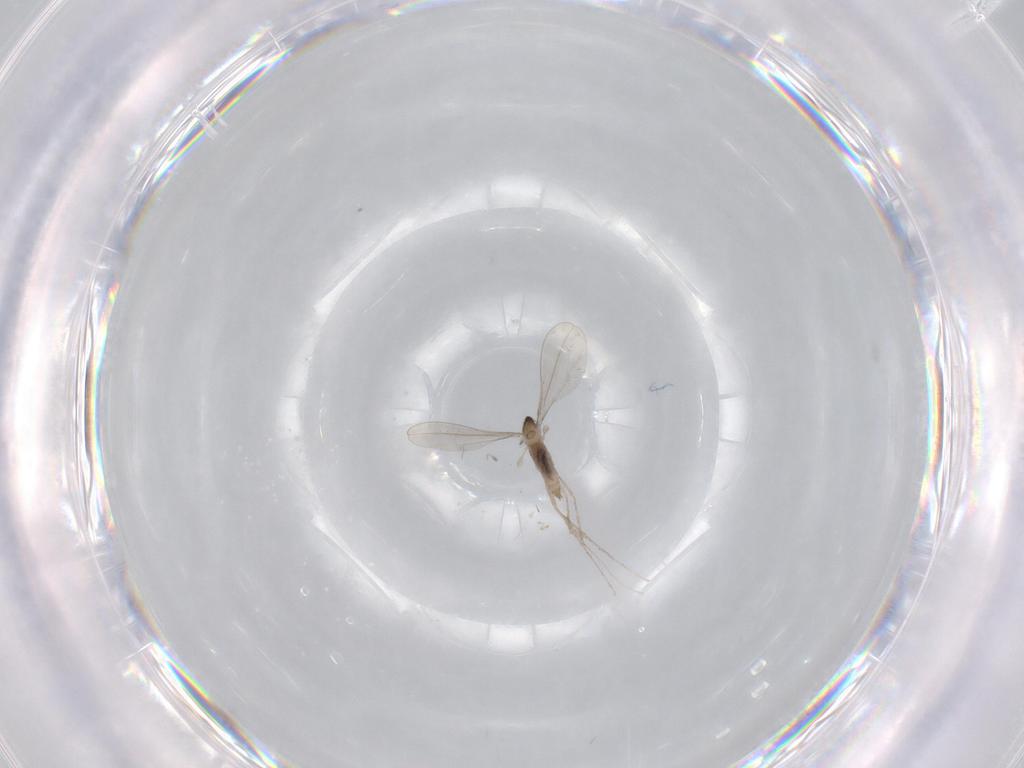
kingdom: Animalia
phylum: Arthropoda
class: Insecta
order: Diptera
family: Cecidomyiidae
